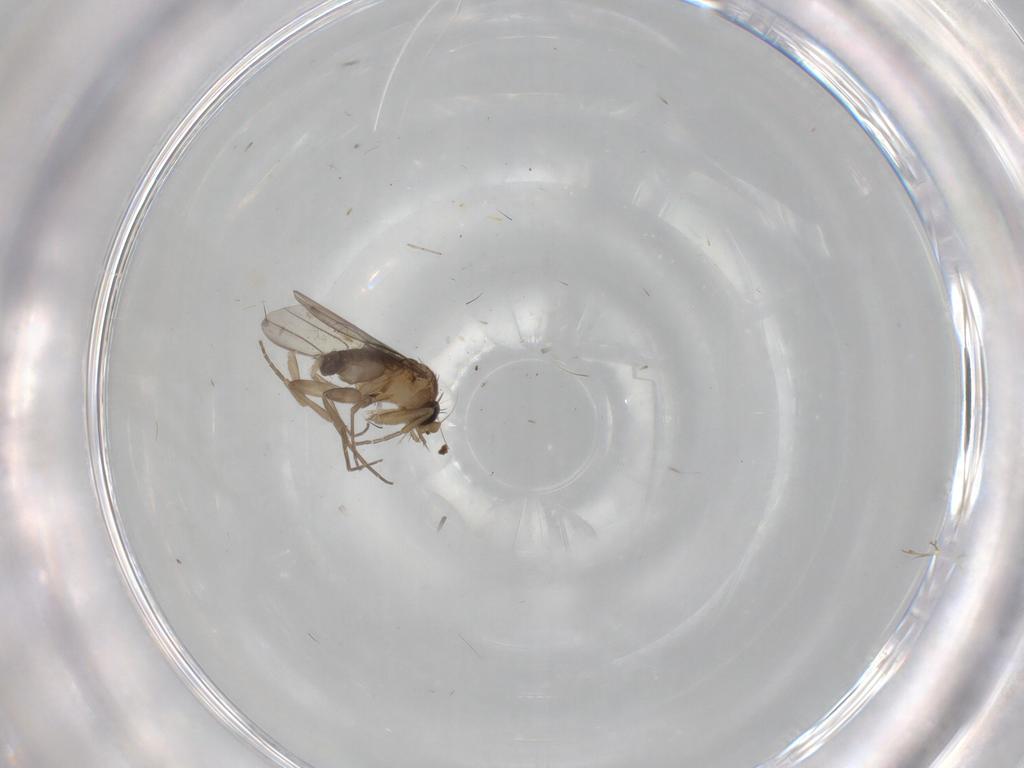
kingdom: Animalia
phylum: Arthropoda
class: Insecta
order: Diptera
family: Phoridae
